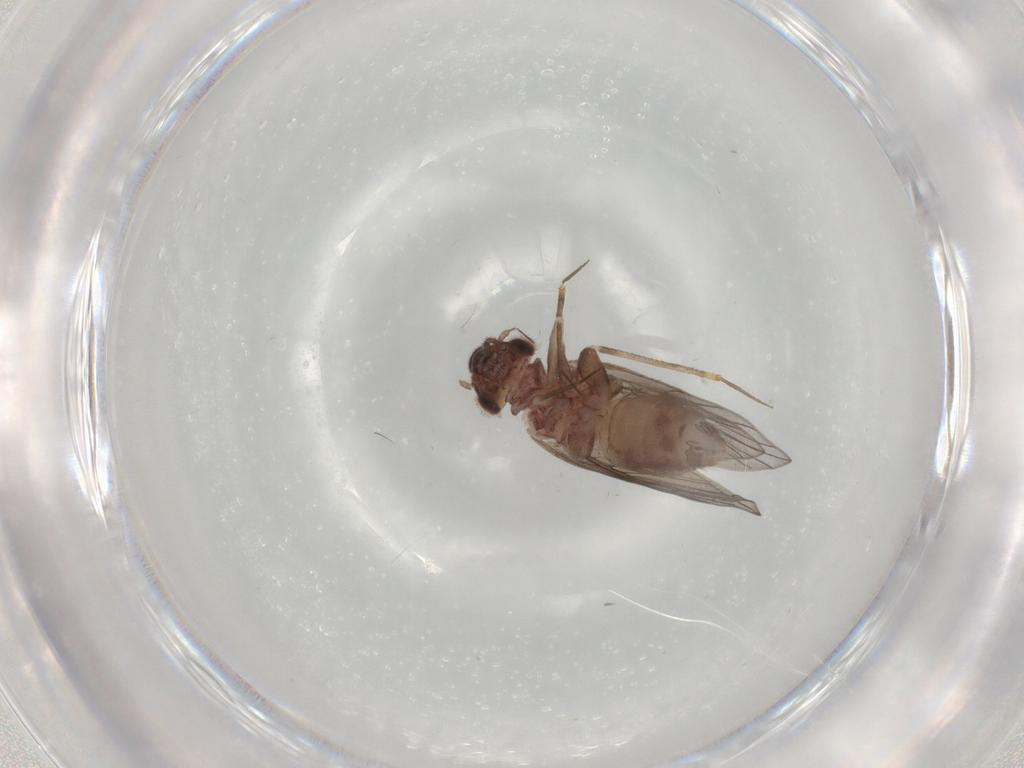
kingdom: Animalia
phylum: Arthropoda
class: Insecta
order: Psocodea
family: Lepidopsocidae
